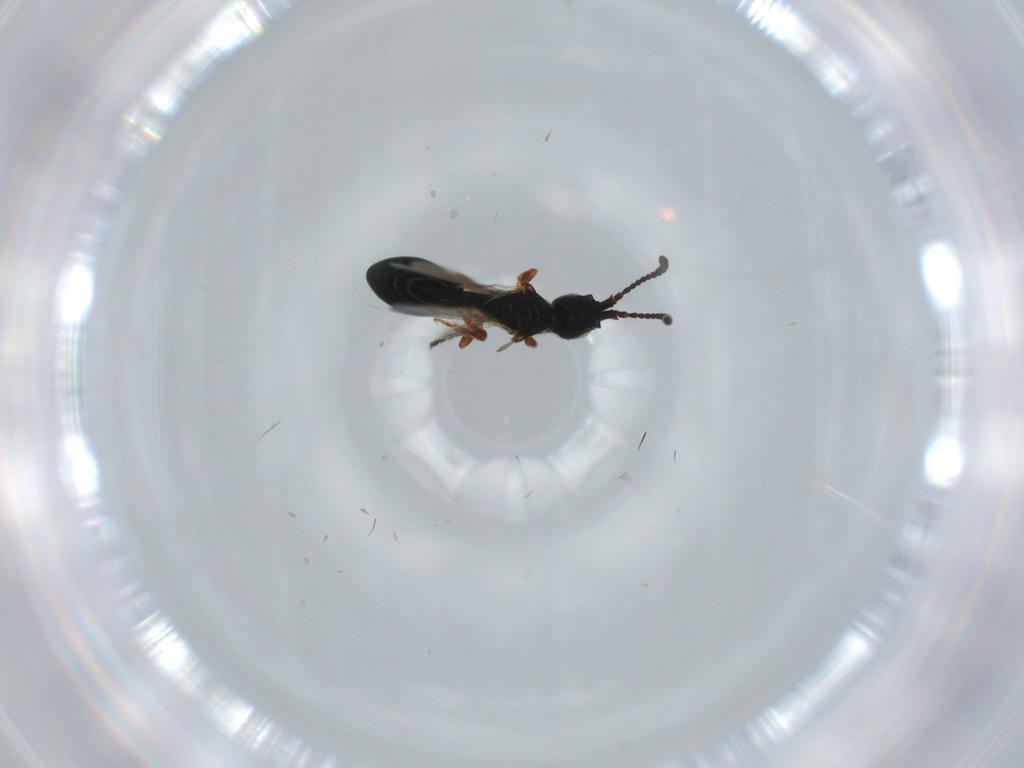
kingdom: Animalia
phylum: Arthropoda
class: Insecta
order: Hymenoptera
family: Diapriidae
